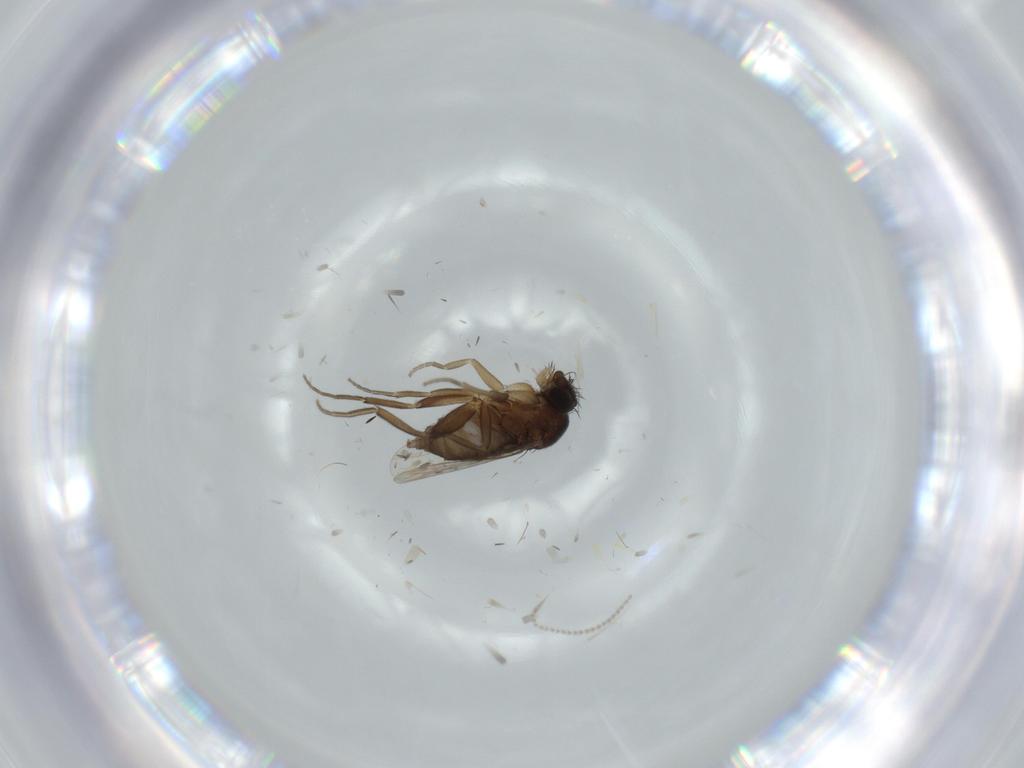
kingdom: Animalia
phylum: Arthropoda
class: Insecta
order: Diptera
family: Phoridae
